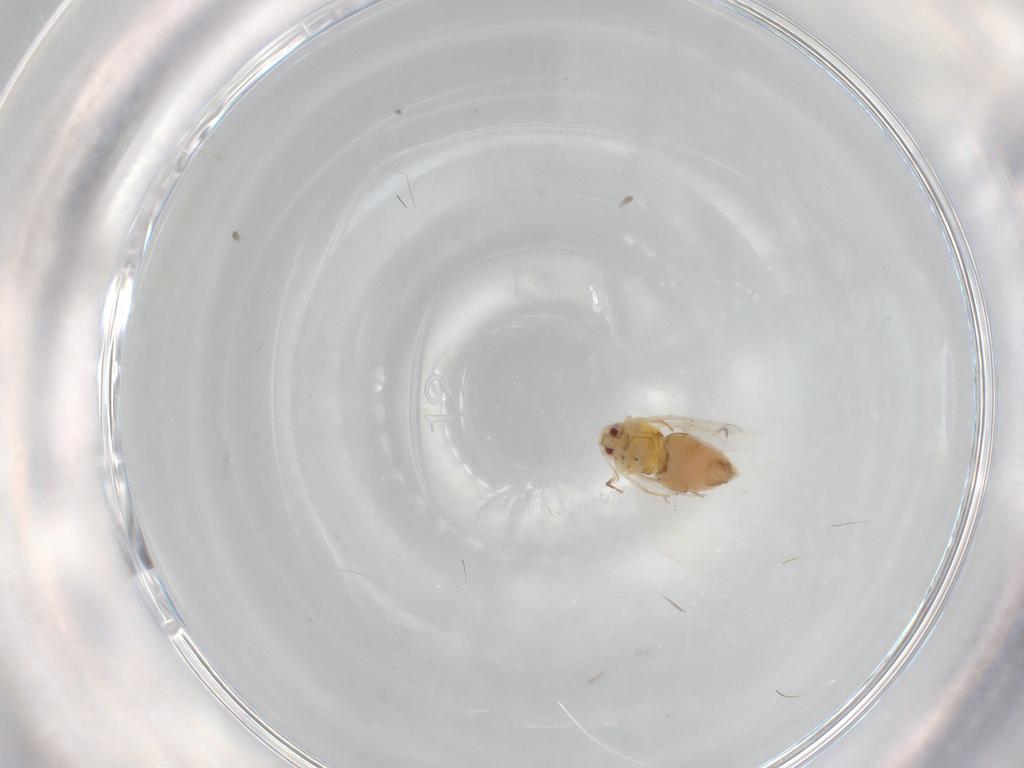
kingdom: Animalia
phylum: Arthropoda
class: Insecta
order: Hemiptera
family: Aleyrodidae
